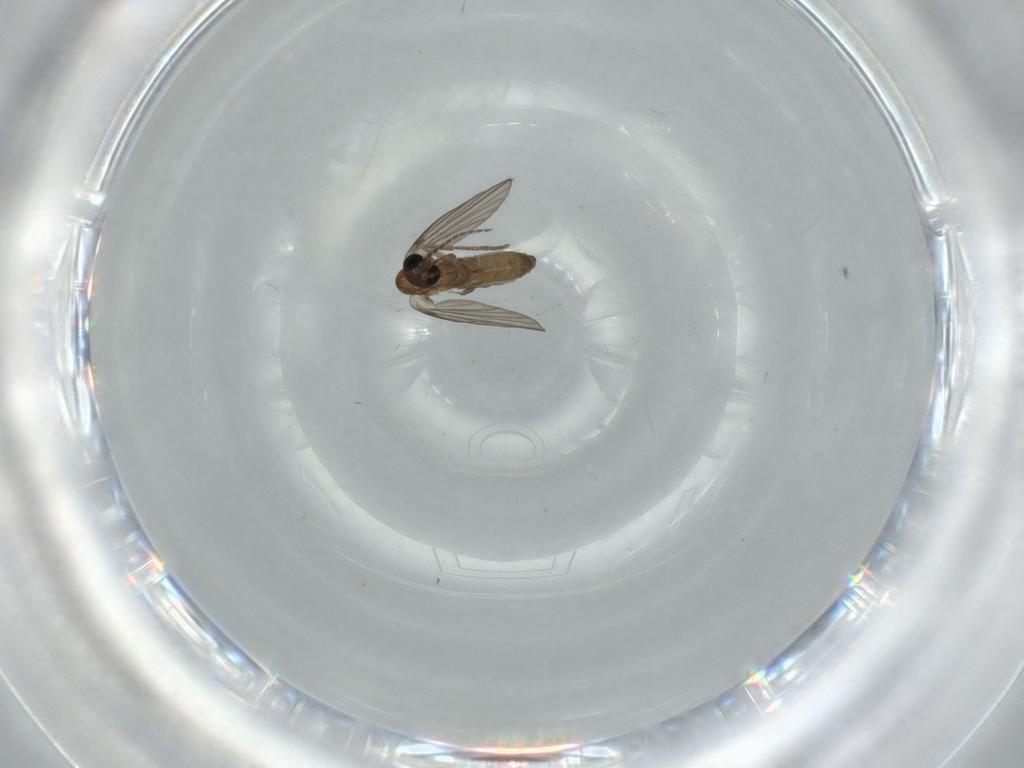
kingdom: Animalia
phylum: Arthropoda
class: Insecta
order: Diptera
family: Psychodidae
